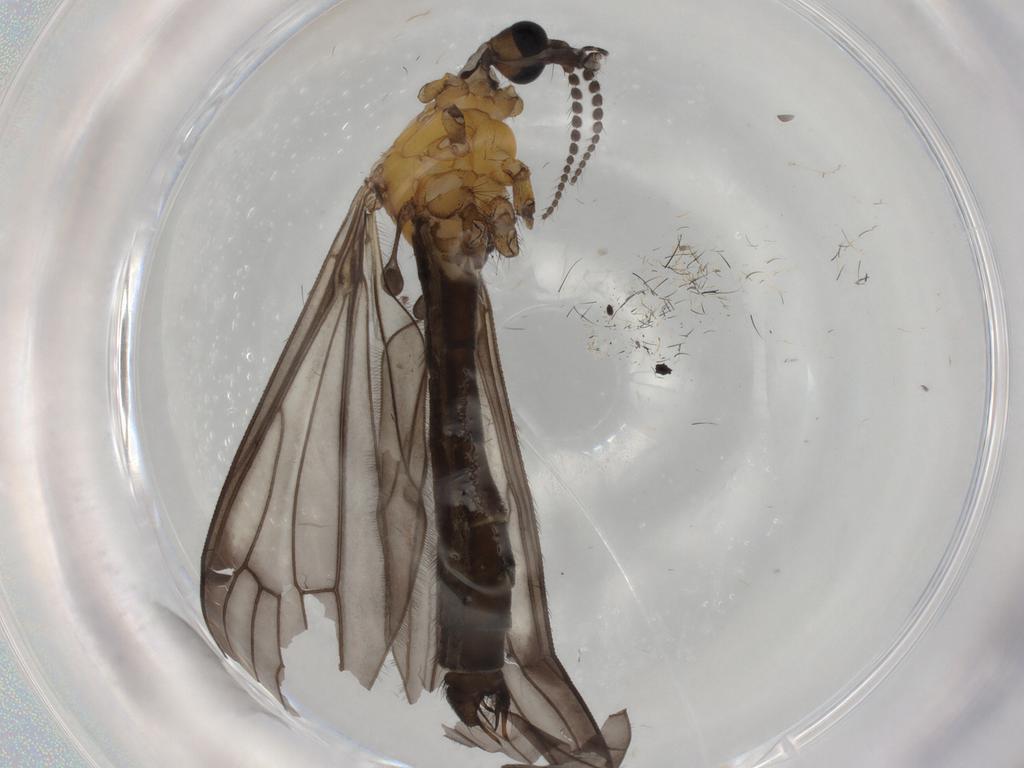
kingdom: Animalia
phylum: Arthropoda
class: Insecta
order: Diptera
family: Limoniidae
